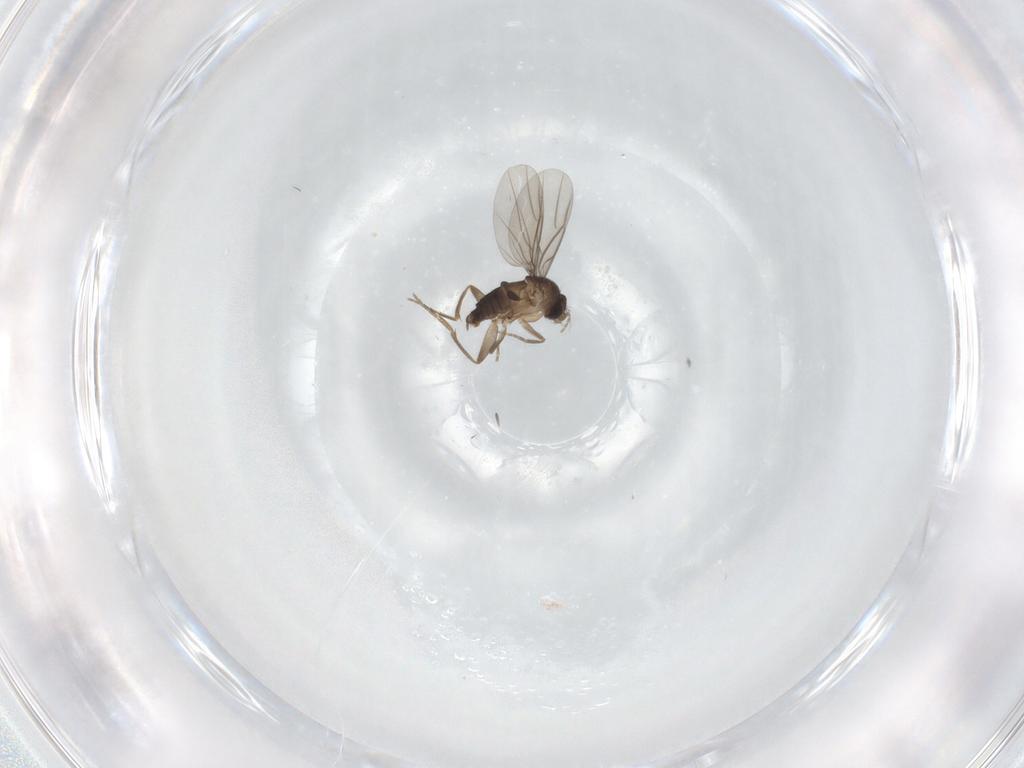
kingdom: Animalia
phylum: Arthropoda
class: Insecta
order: Diptera
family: Phoridae
